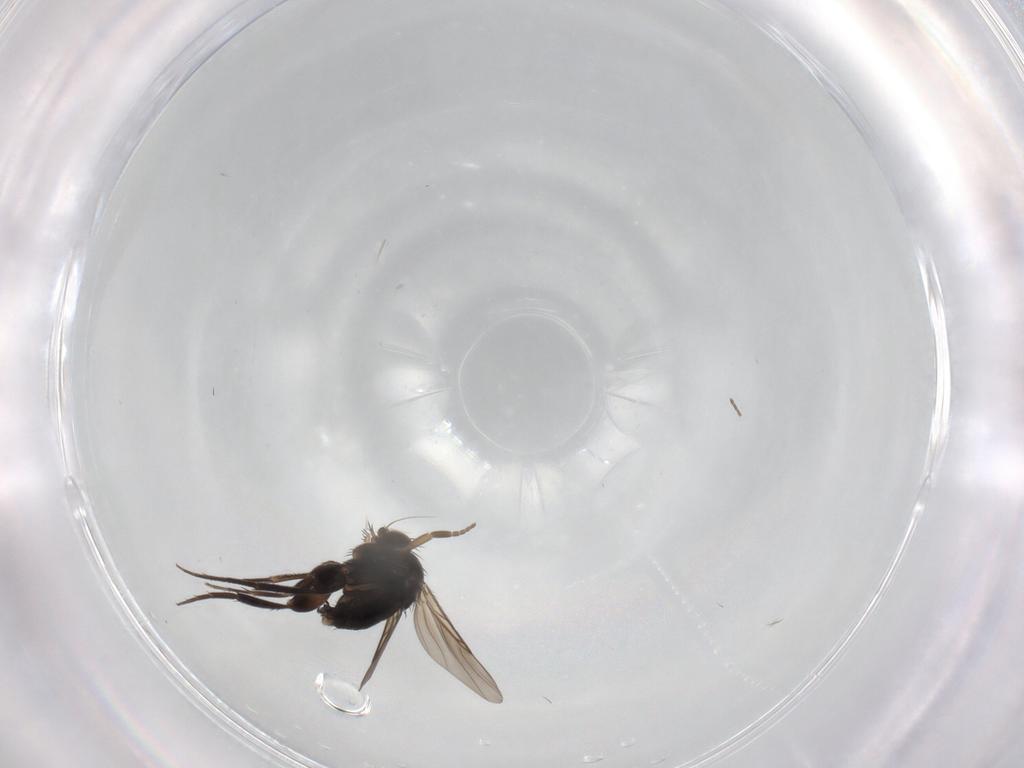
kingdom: Animalia
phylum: Arthropoda
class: Insecta
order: Diptera
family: Phoridae
